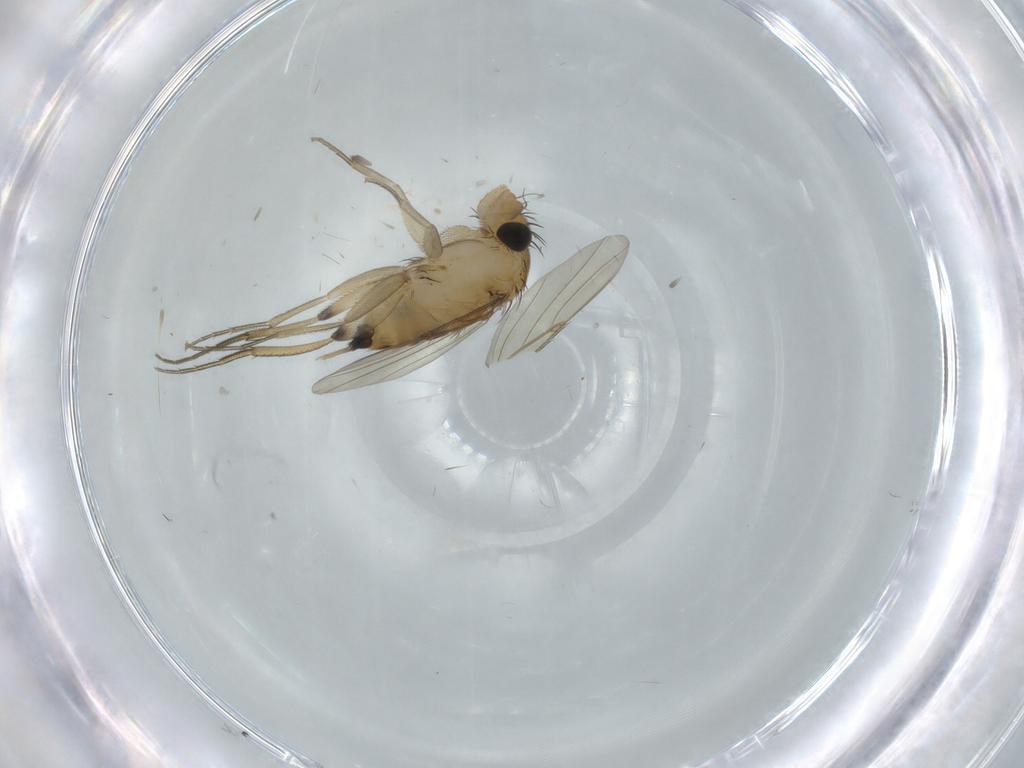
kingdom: Animalia
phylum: Arthropoda
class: Insecta
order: Diptera
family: Phoridae
